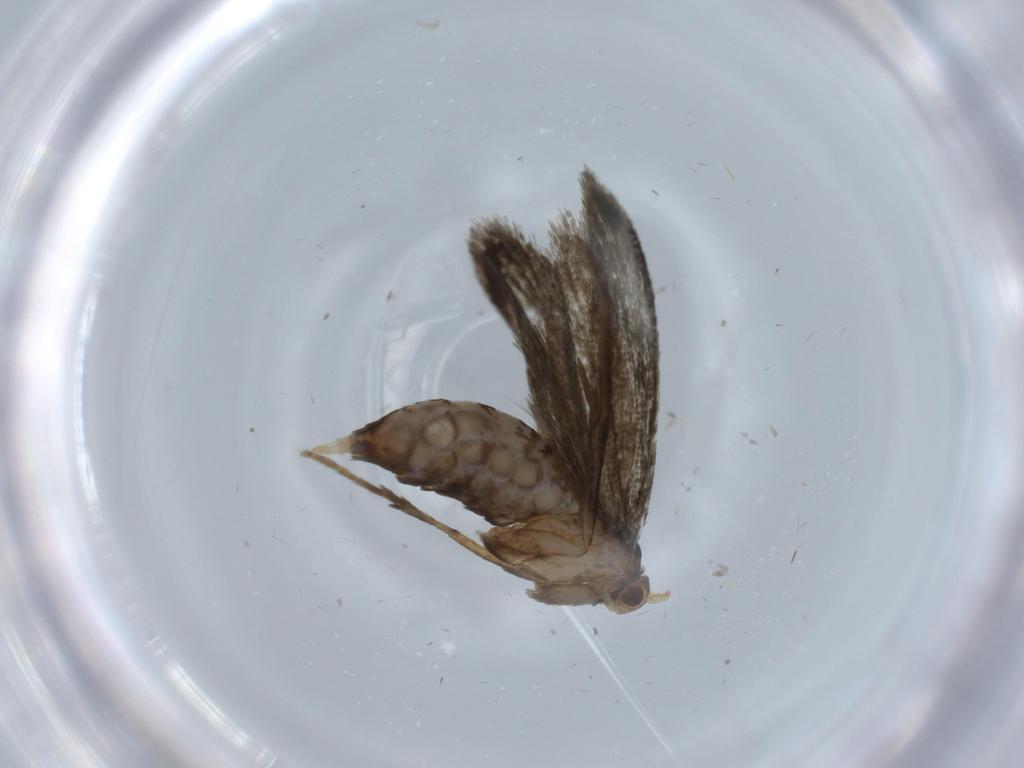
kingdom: Animalia
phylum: Arthropoda
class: Insecta
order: Lepidoptera
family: Tineidae
